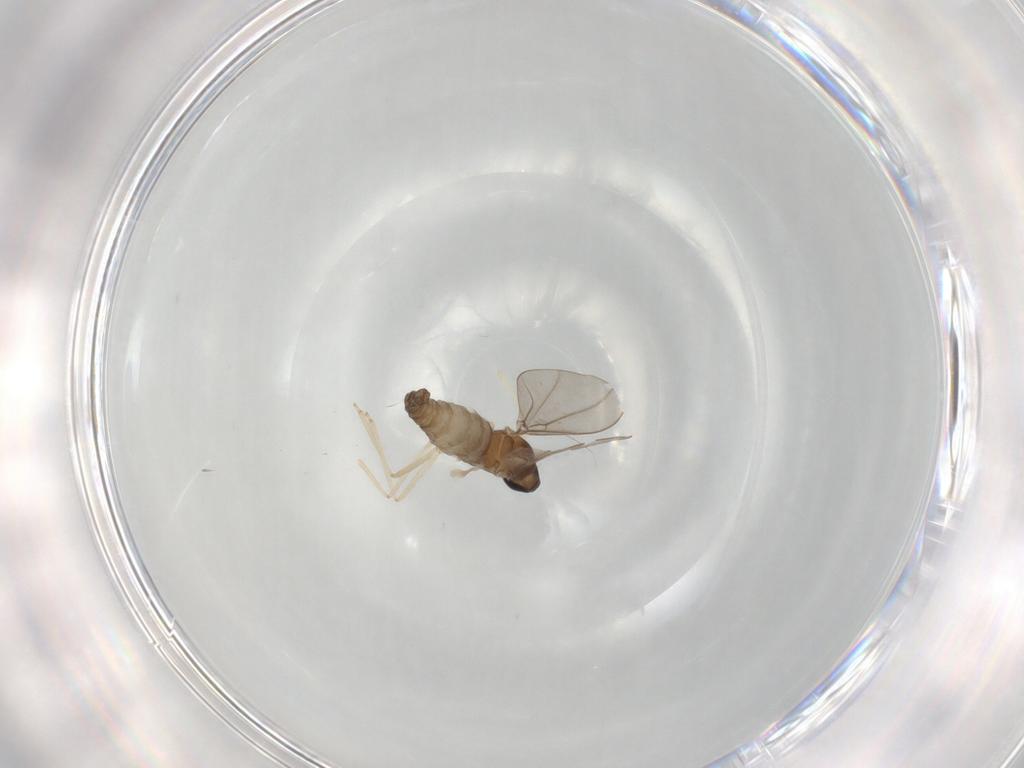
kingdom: Animalia
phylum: Arthropoda
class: Insecta
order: Diptera
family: Cecidomyiidae
